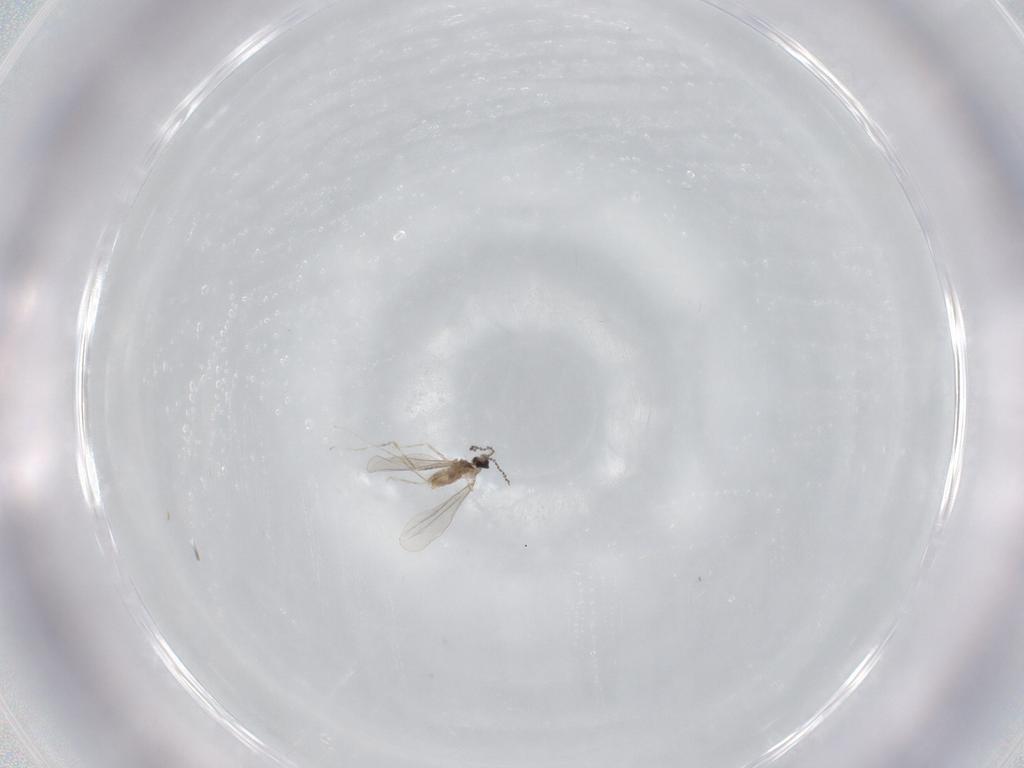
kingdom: Animalia
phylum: Arthropoda
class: Insecta
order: Diptera
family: Cecidomyiidae
